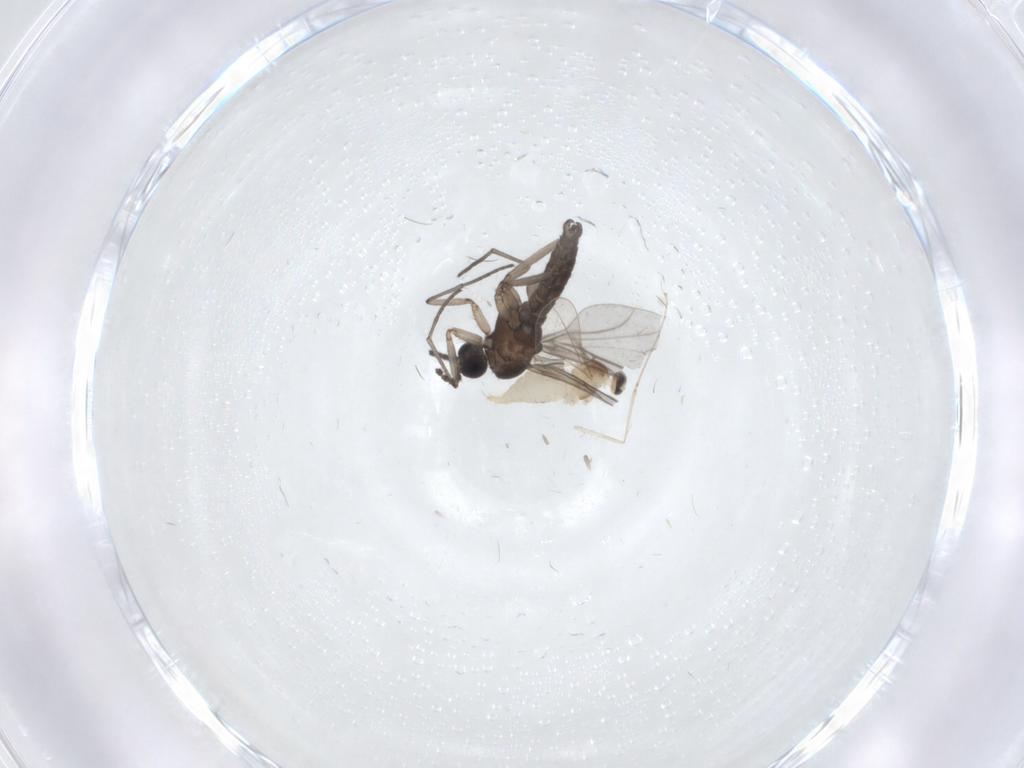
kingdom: Animalia
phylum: Arthropoda
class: Insecta
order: Diptera
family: Cecidomyiidae
